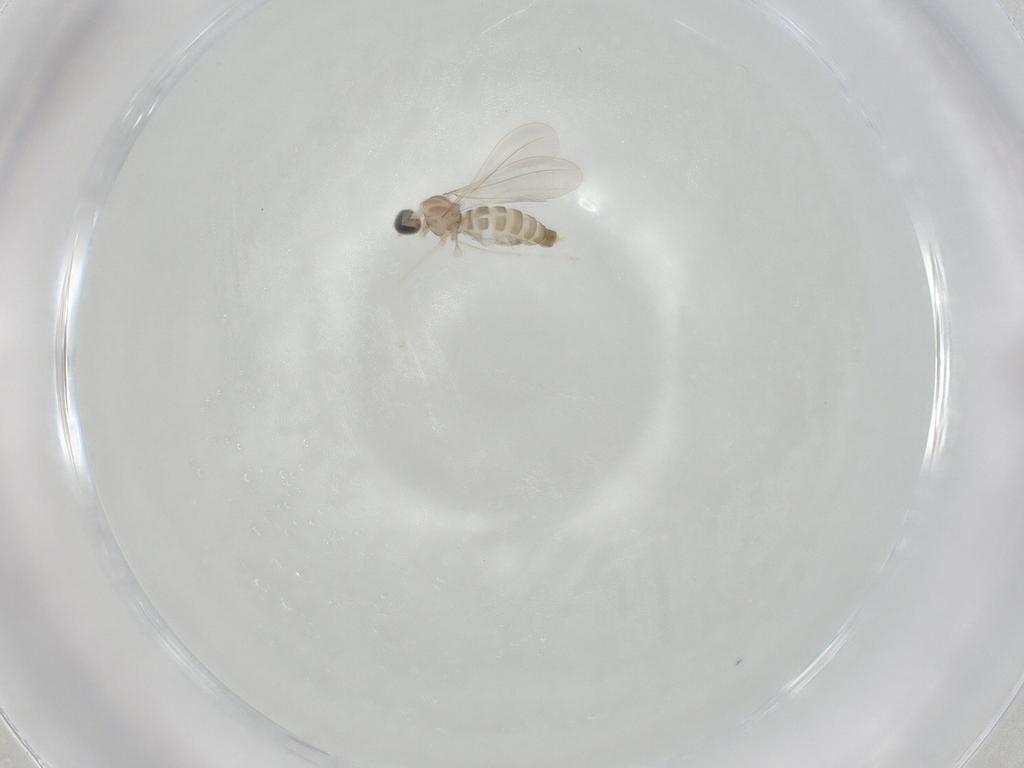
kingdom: Animalia
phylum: Arthropoda
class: Insecta
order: Diptera
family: Cecidomyiidae
